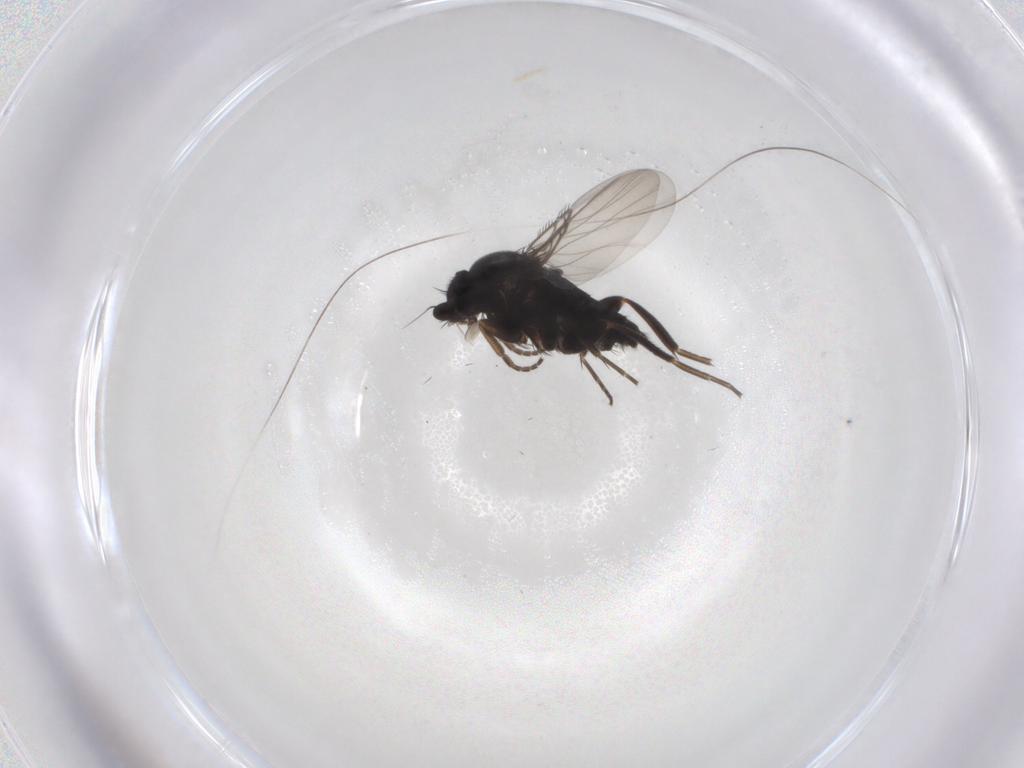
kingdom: Animalia
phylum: Arthropoda
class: Insecta
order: Diptera
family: Phoridae
